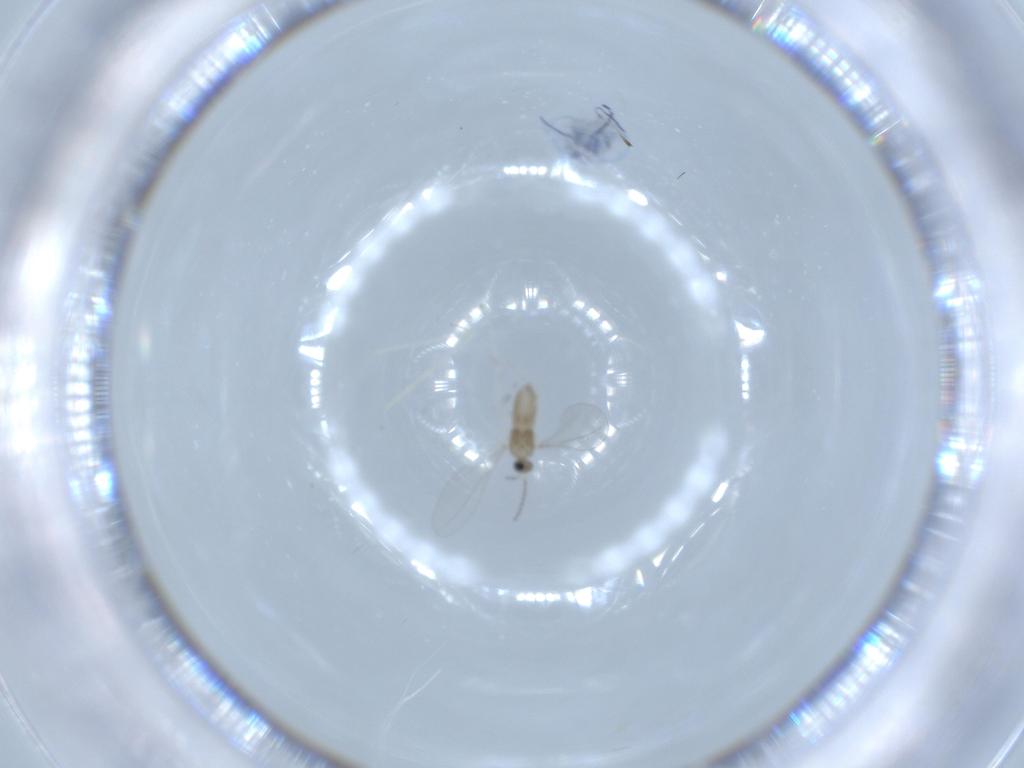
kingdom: Animalia
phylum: Arthropoda
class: Insecta
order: Diptera
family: Cecidomyiidae
